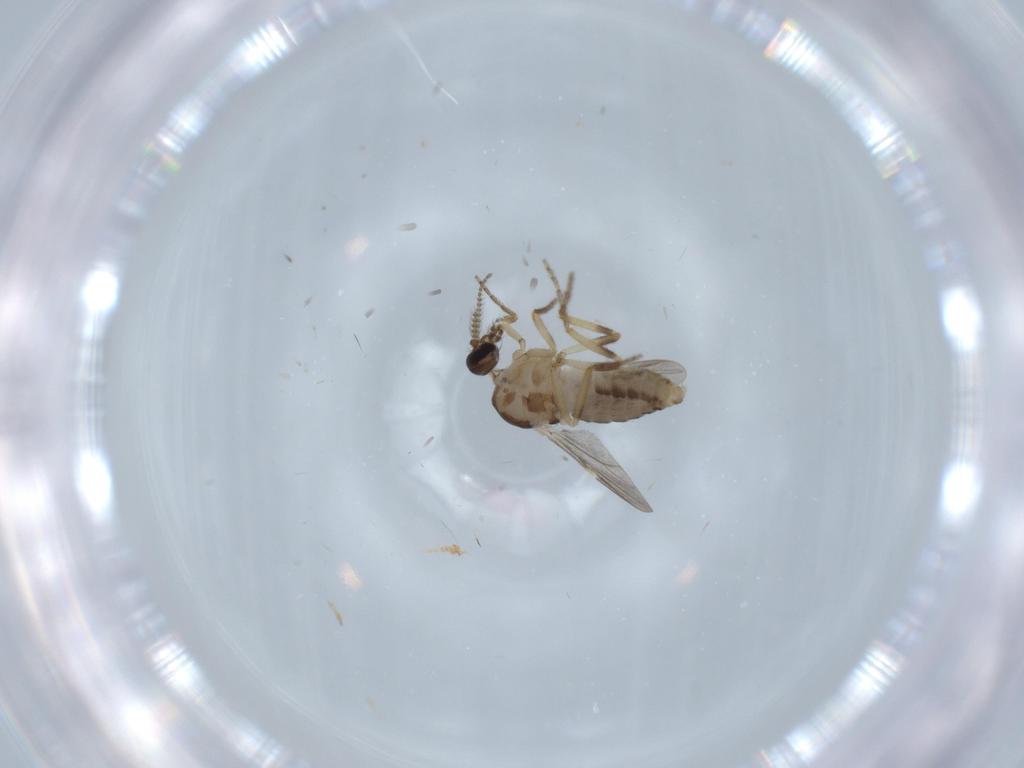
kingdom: Animalia
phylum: Arthropoda
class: Insecta
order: Diptera
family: Ceratopogonidae
